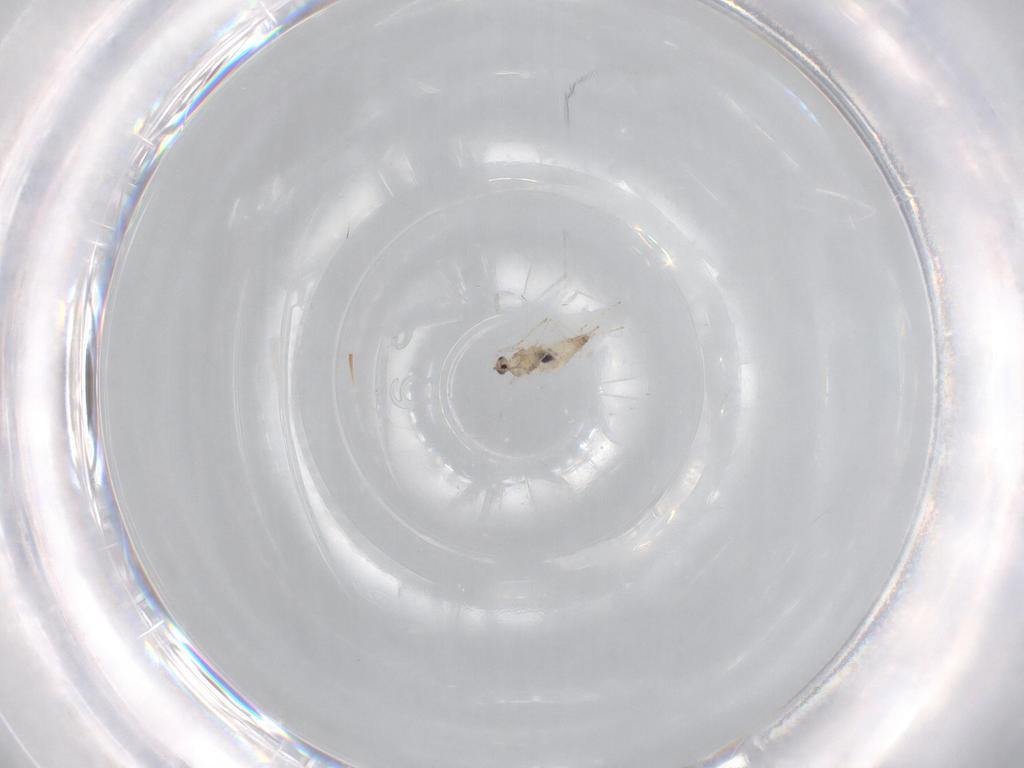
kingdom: Animalia
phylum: Arthropoda
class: Insecta
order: Diptera
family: Cecidomyiidae
